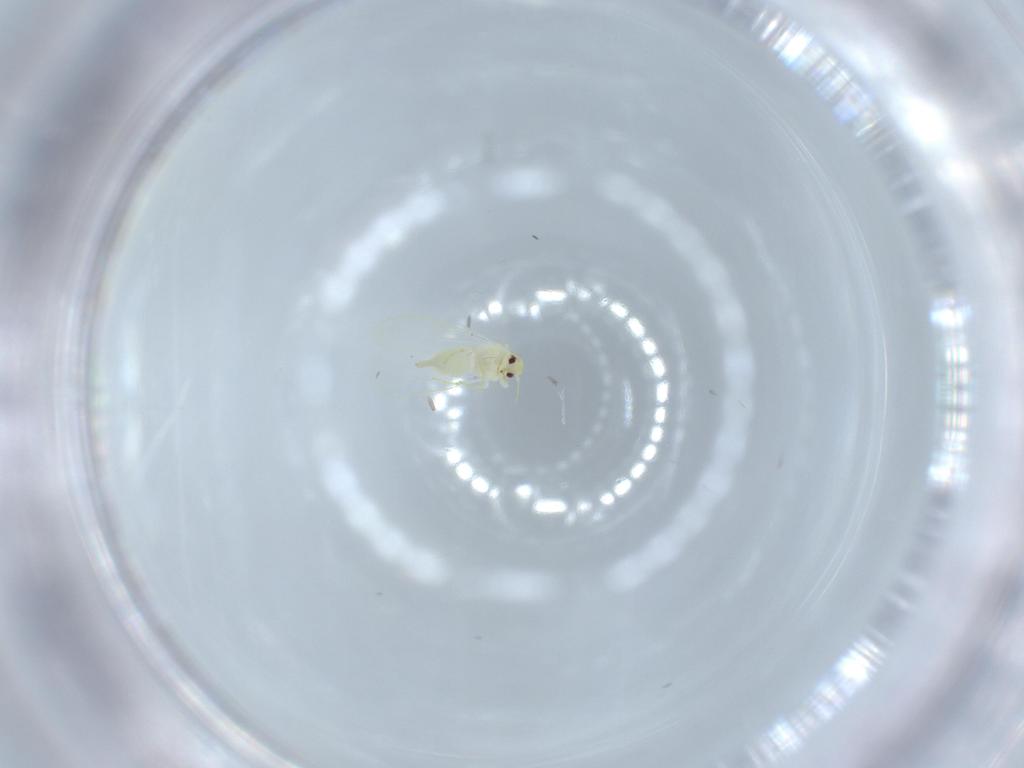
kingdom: Animalia
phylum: Arthropoda
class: Insecta
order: Hemiptera
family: Aleyrodidae
